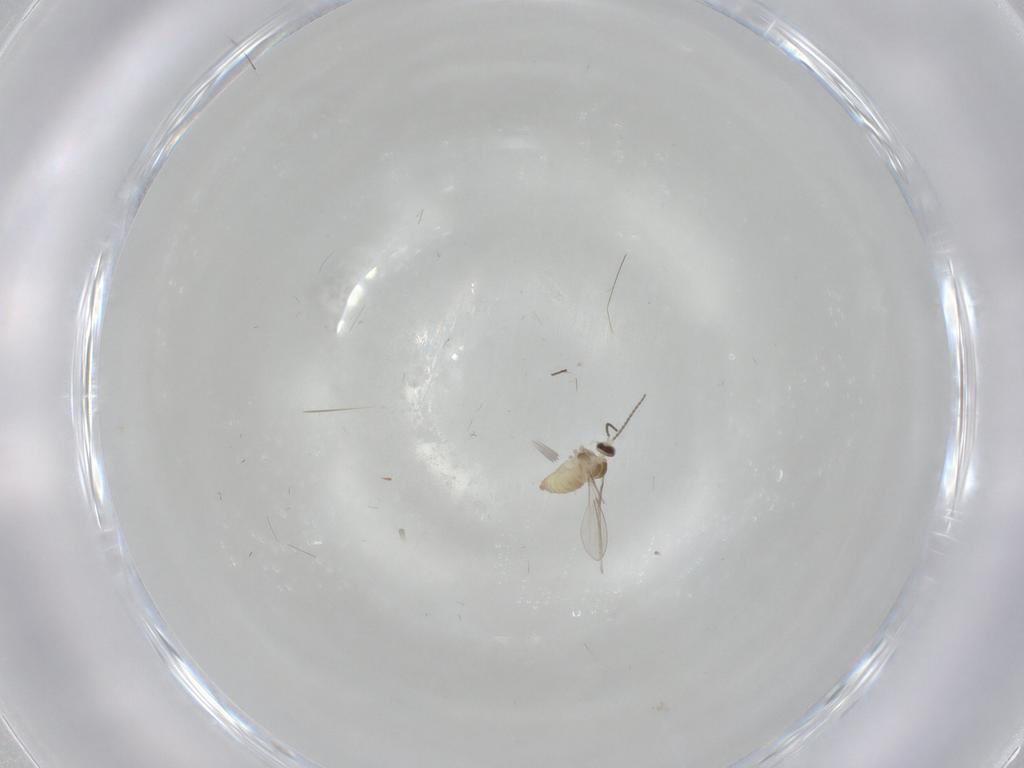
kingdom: Animalia
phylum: Arthropoda
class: Insecta
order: Diptera
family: Cecidomyiidae
